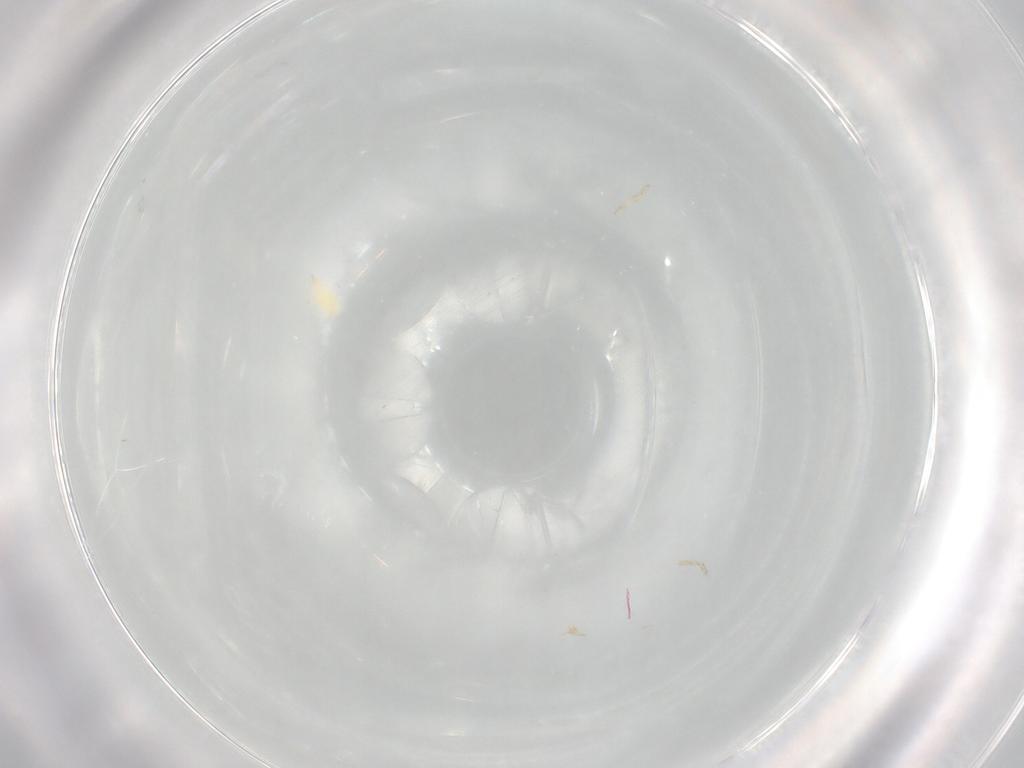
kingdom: Animalia
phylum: Arthropoda
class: Arachnida
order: Trombidiformes
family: Cunaxidae
